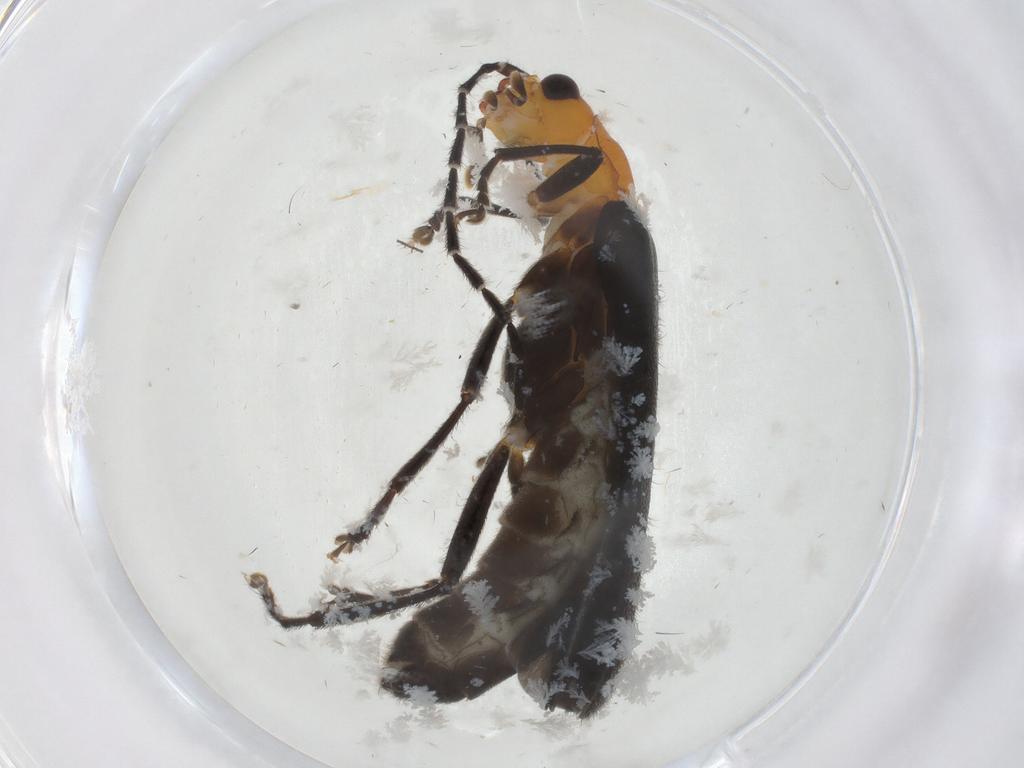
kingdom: Animalia
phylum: Arthropoda
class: Insecta
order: Coleoptera
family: Cantharidae
